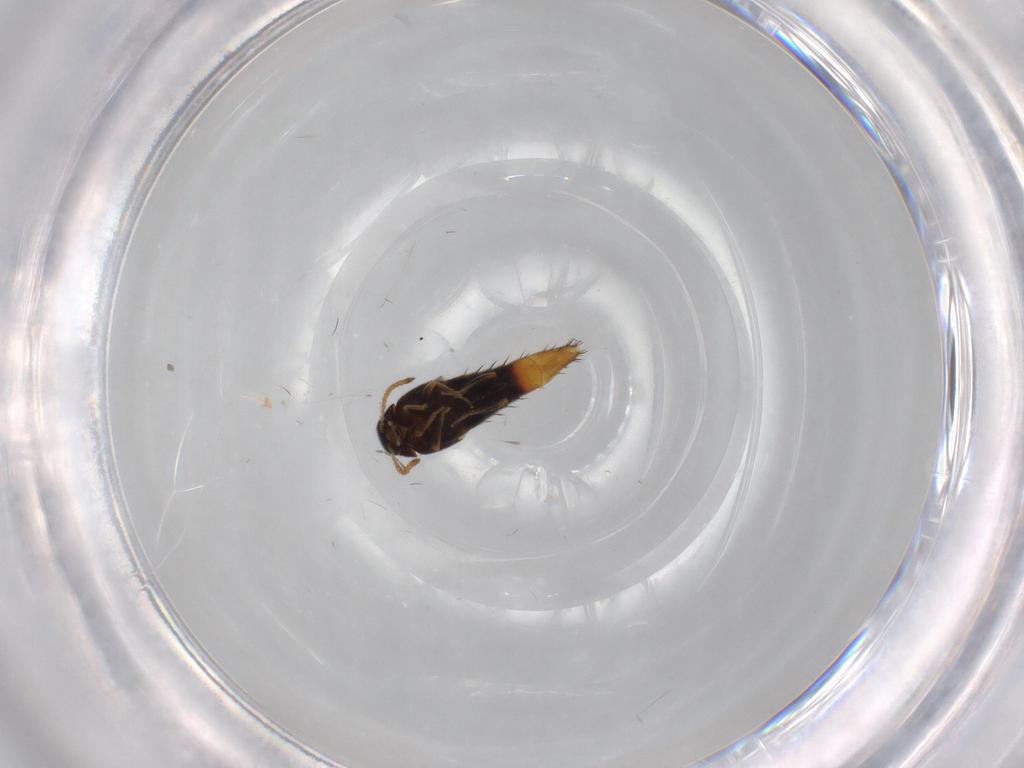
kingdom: Animalia
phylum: Arthropoda
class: Insecta
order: Coleoptera
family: Staphylinidae
